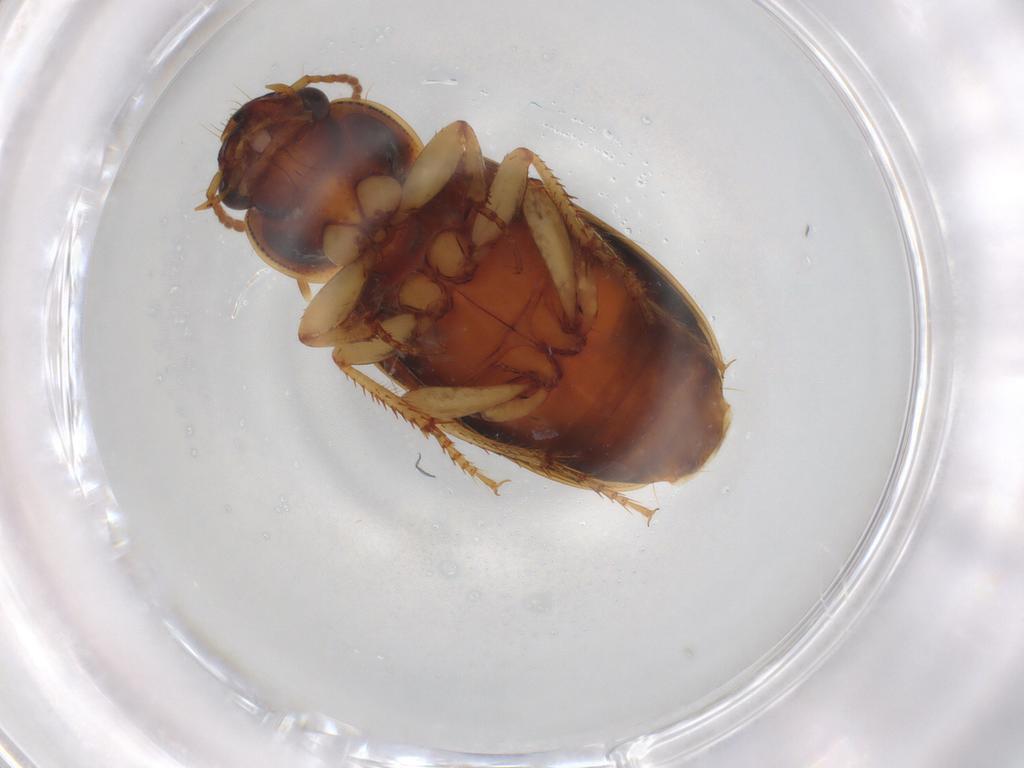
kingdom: Animalia
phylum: Arthropoda
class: Insecta
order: Coleoptera
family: Carabidae
